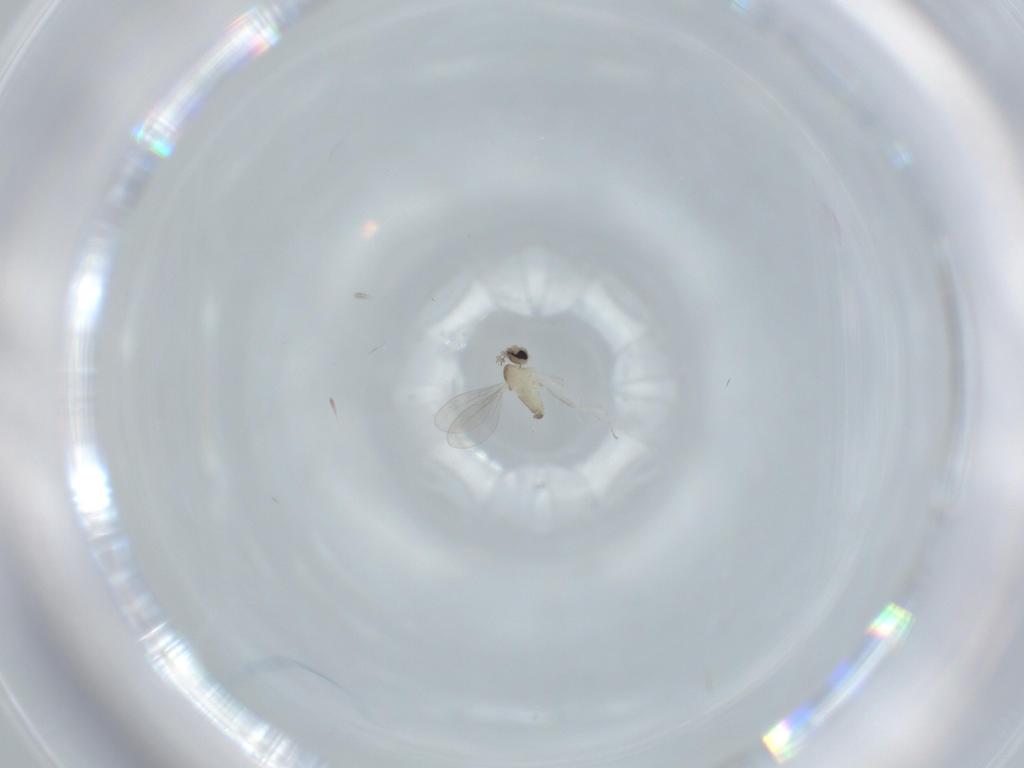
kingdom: Animalia
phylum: Arthropoda
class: Insecta
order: Diptera
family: Cecidomyiidae
